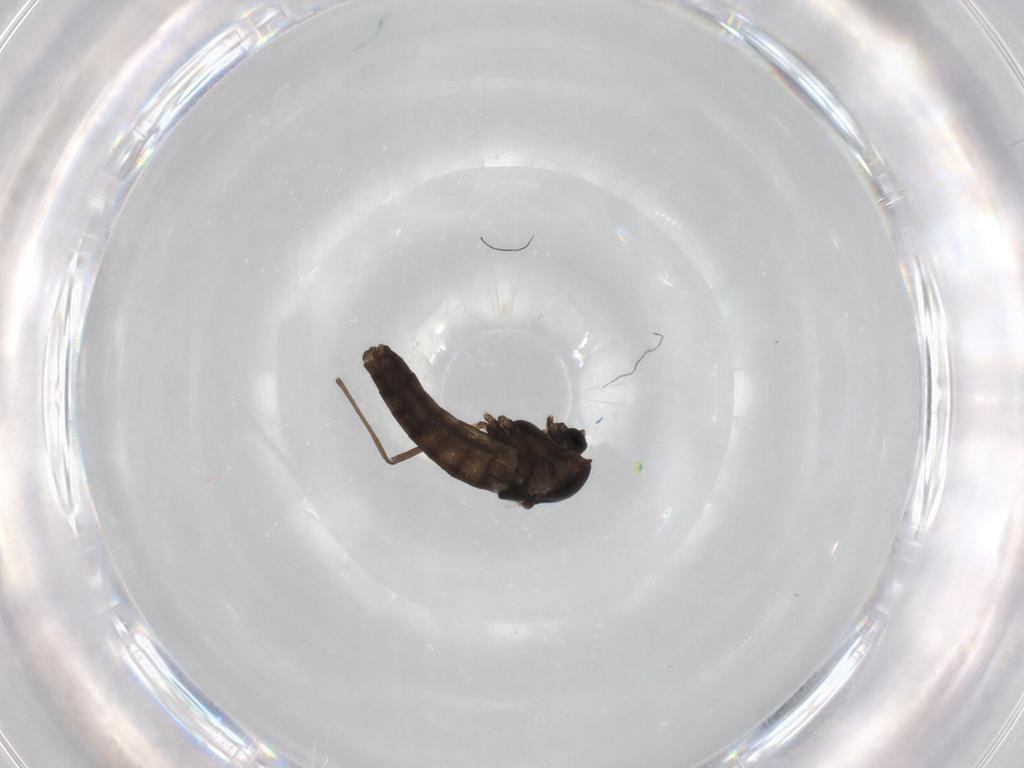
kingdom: Animalia
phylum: Arthropoda
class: Insecta
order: Diptera
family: Chironomidae
